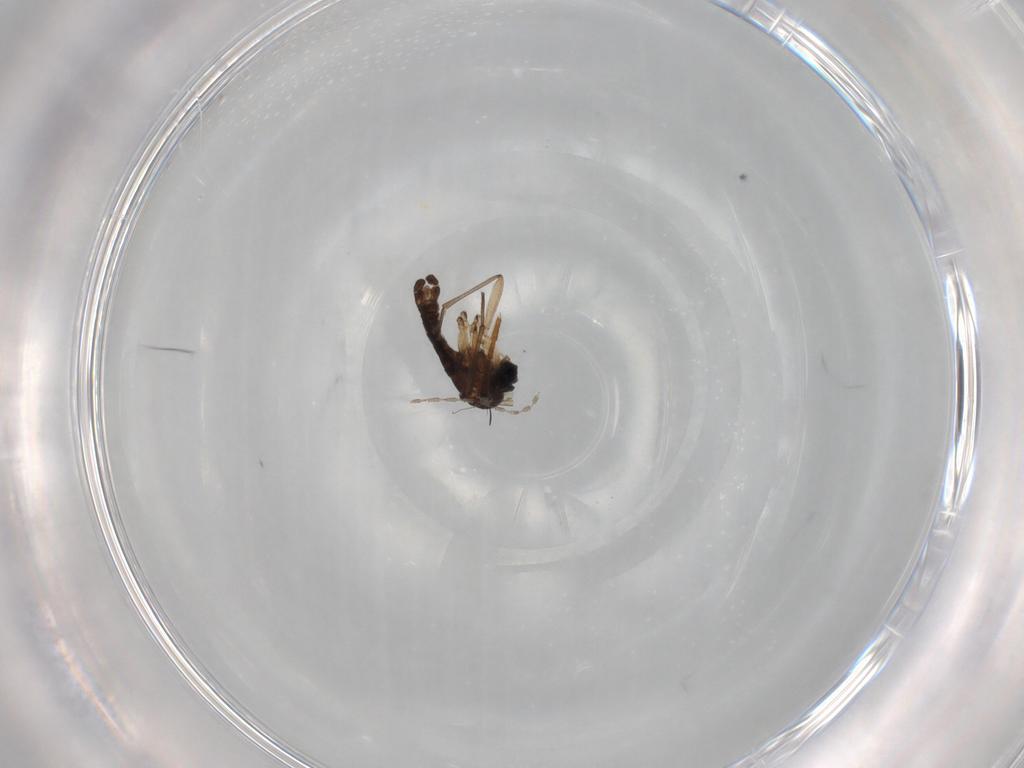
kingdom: Animalia
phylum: Arthropoda
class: Insecta
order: Diptera
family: Sciaridae
